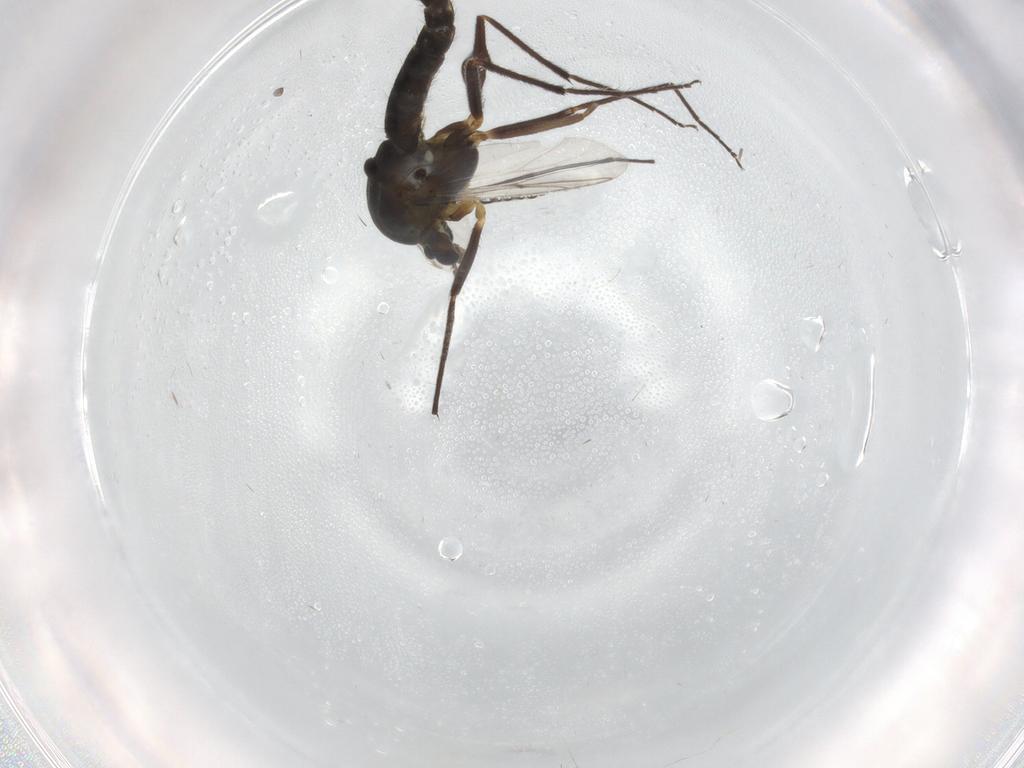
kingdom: Animalia
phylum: Arthropoda
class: Insecta
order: Diptera
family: Chironomidae
